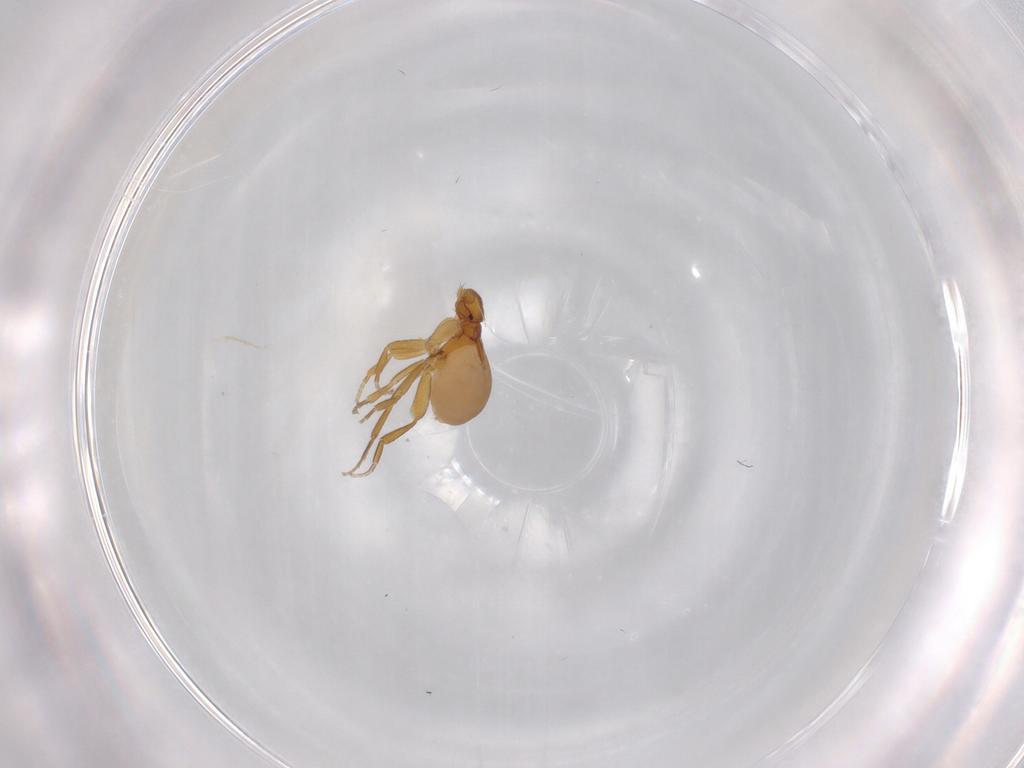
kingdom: Animalia
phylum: Arthropoda
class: Insecta
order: Diptera
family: Phoridae
